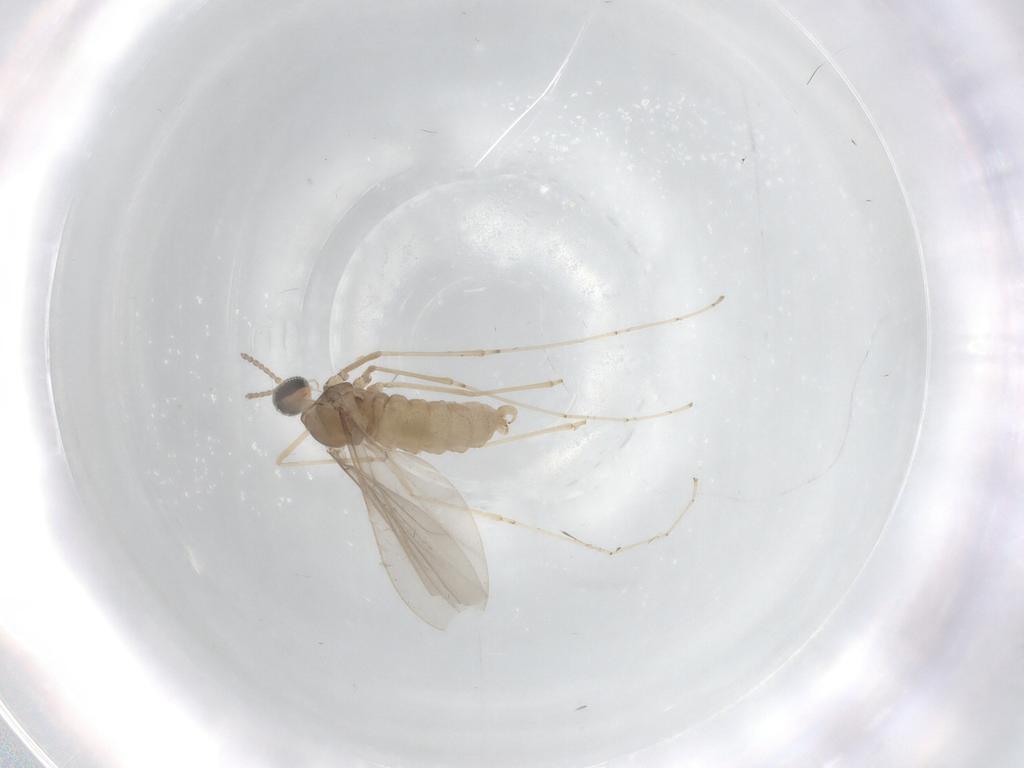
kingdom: Animalia
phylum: Arthropoda
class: Insecta
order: Diptera
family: Cecidomyiidae
